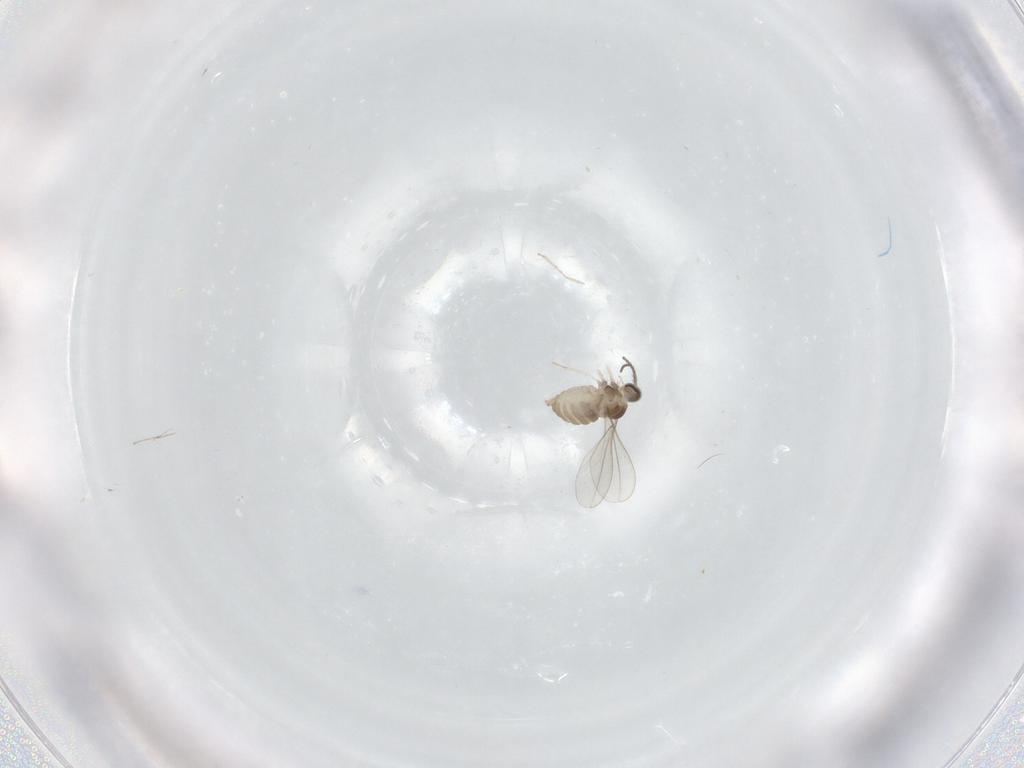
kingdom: Animalia
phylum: Arthropoda
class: Insecta
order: Diptera
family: Cecidomyiidae
